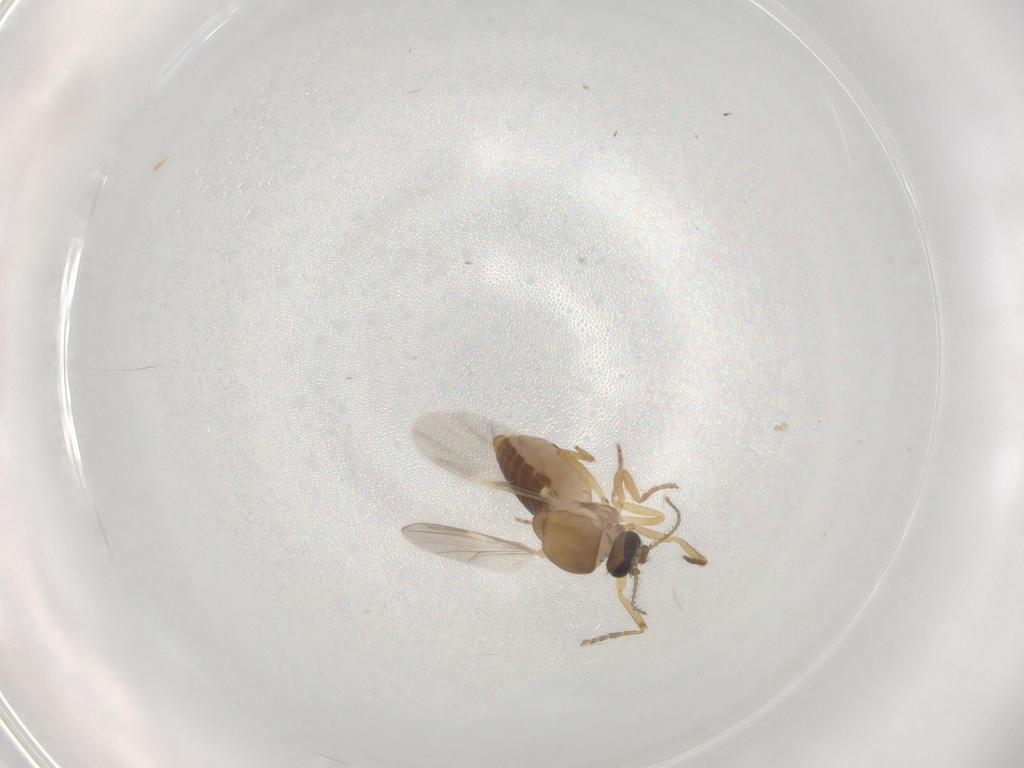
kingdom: Animalia
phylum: Arthropoda
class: Insecta
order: Diptera
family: Ceratopogonidae
